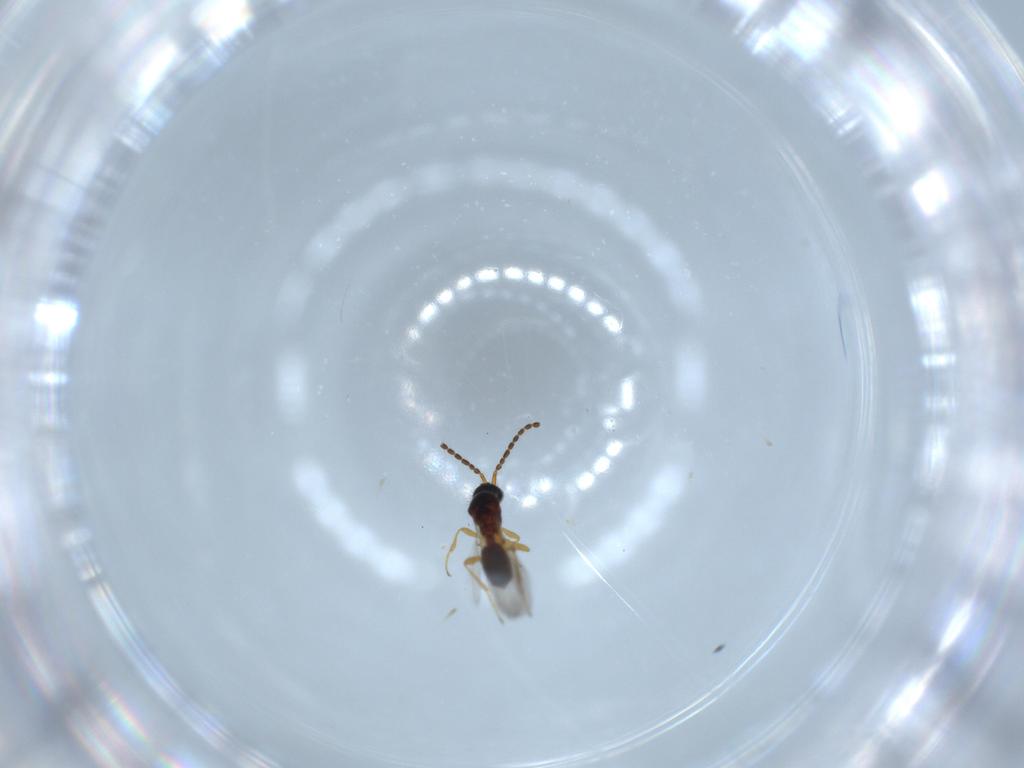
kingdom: Animalia
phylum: Arthropoda
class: Insecta
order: Hymenoptera
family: Diapriidae
